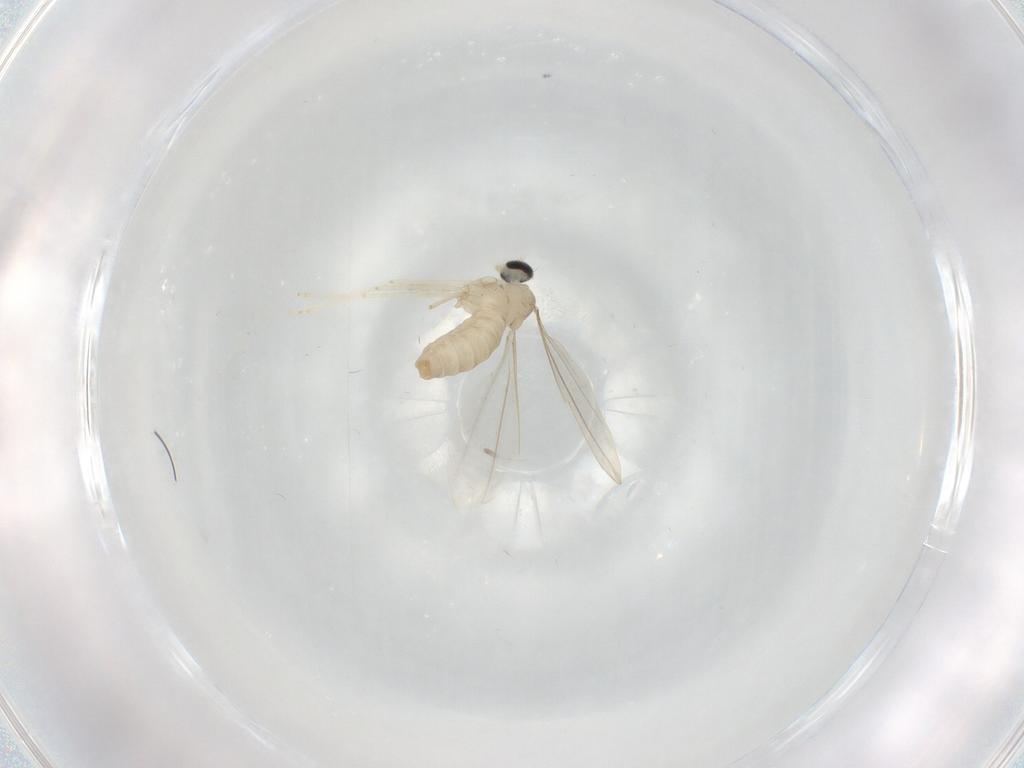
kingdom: Animalia
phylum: Arthropoda
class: Insecta
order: Diptera
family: Cecidomyiidae
